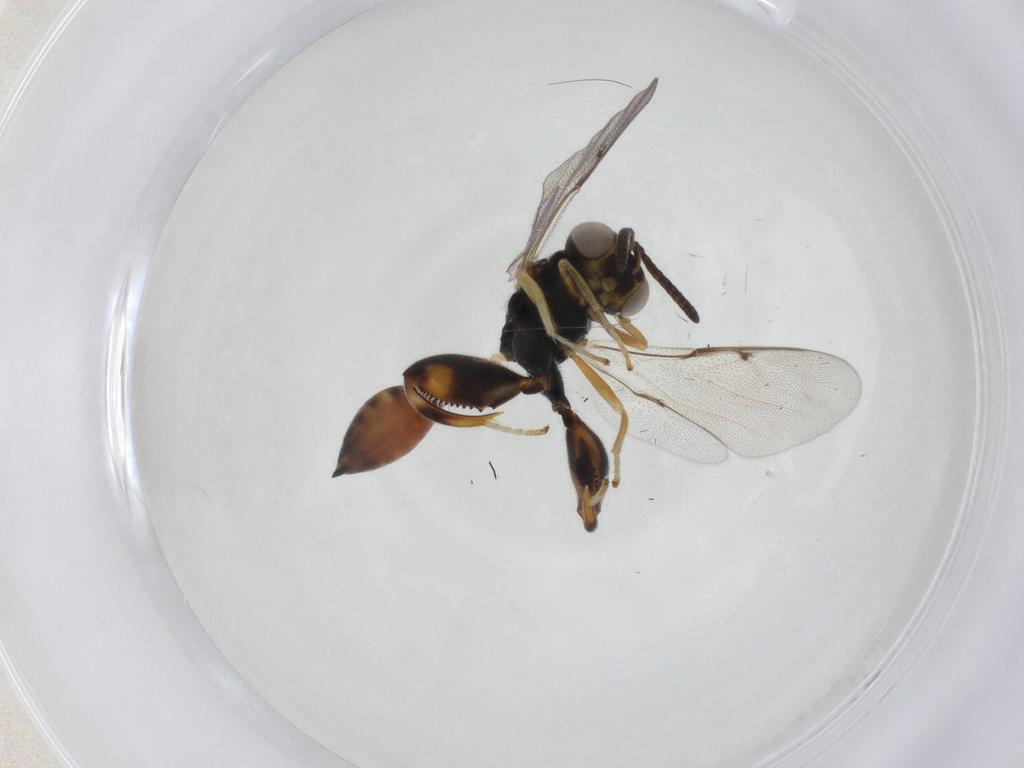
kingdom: Animalia
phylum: Arthropoda
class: Insecta
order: Hymenoptera
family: Chalcididae
